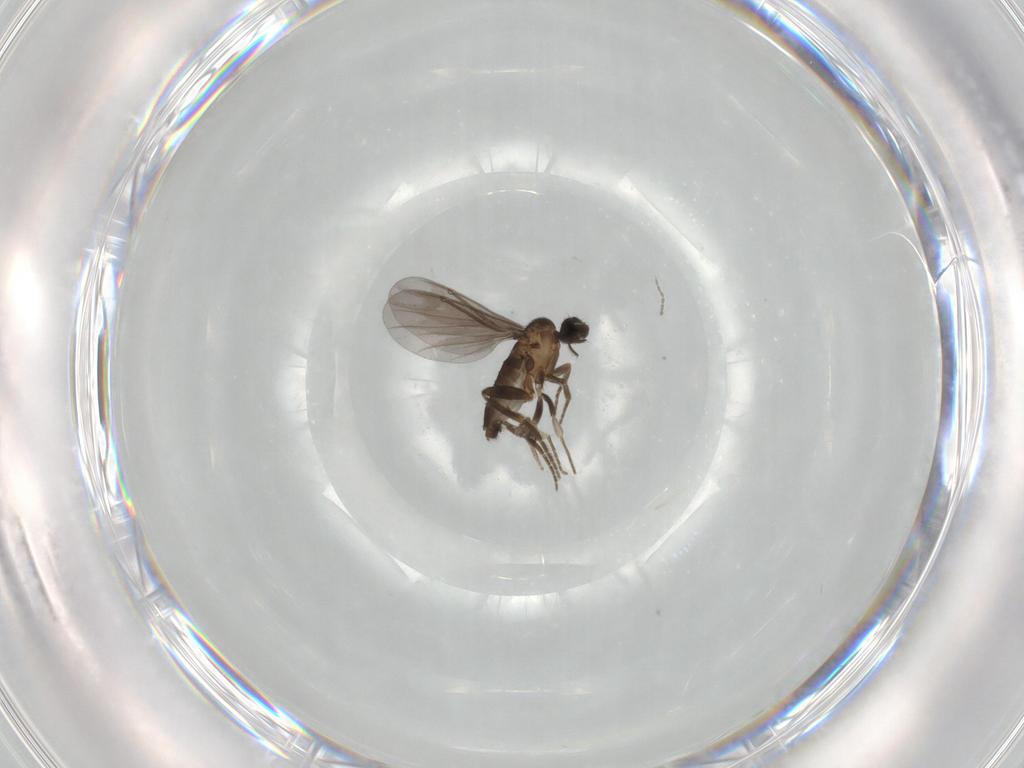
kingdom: Animalia
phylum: Arthropoda
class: Insecta
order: Diptera
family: Phoridae
